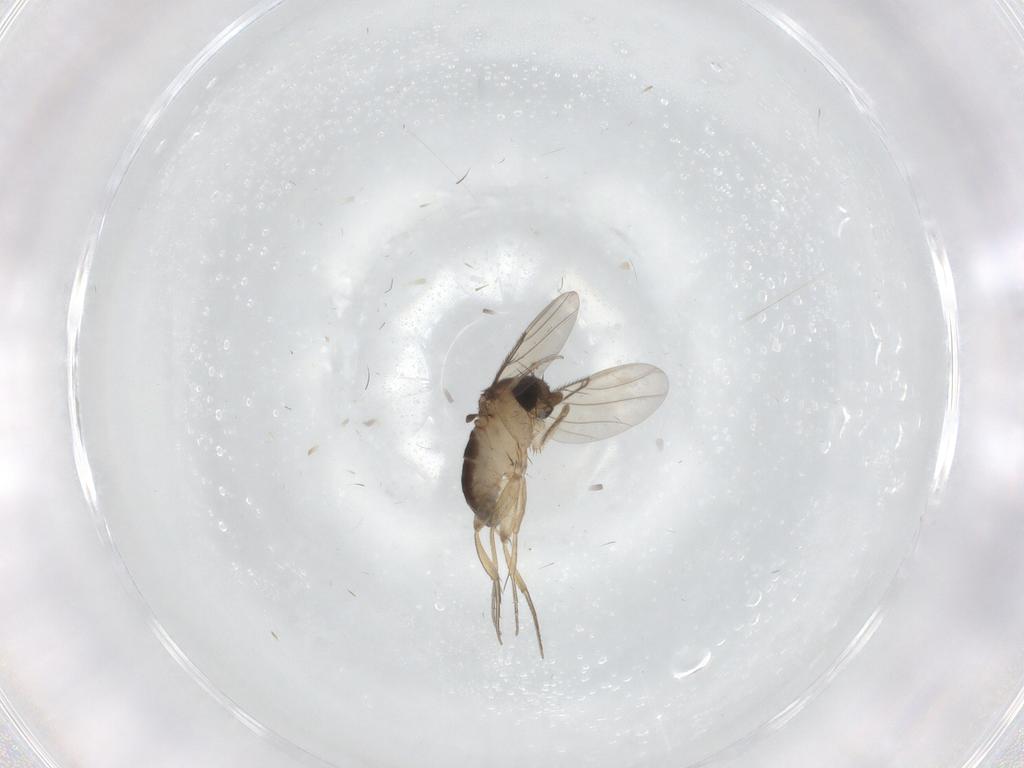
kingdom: Animalia
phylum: Arthropoda
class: Insecta
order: Diptera
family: Phoridae
